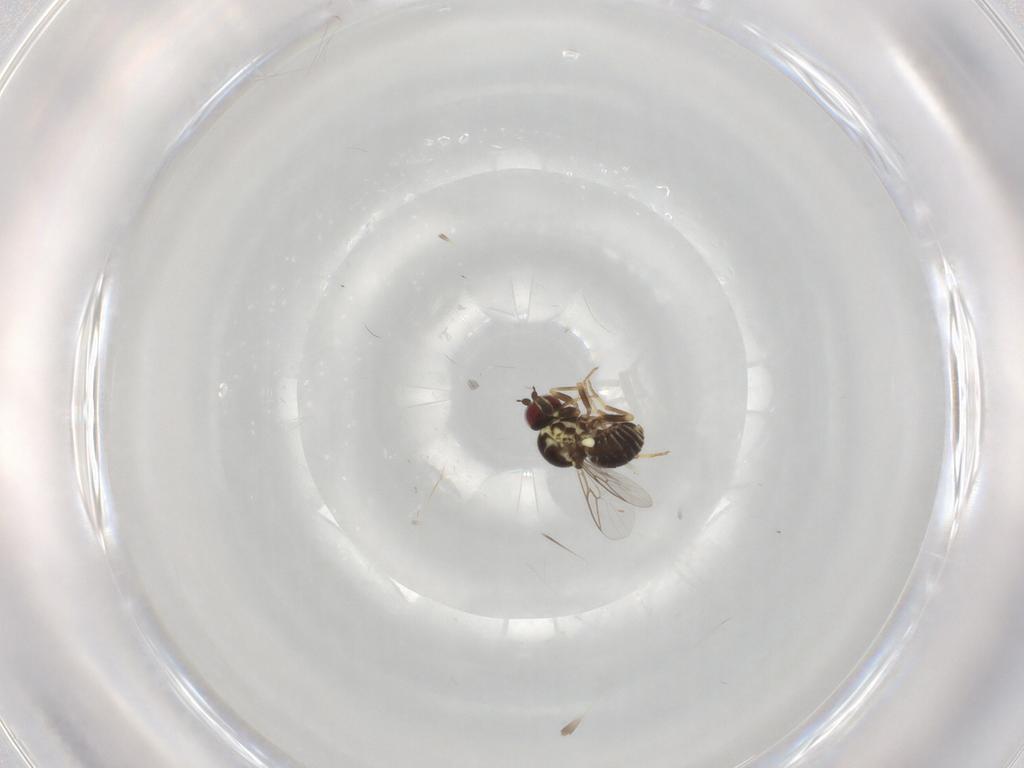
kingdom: Animalia
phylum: Arthropoda
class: Insecta
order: Diptera
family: Mythicomyiidae
